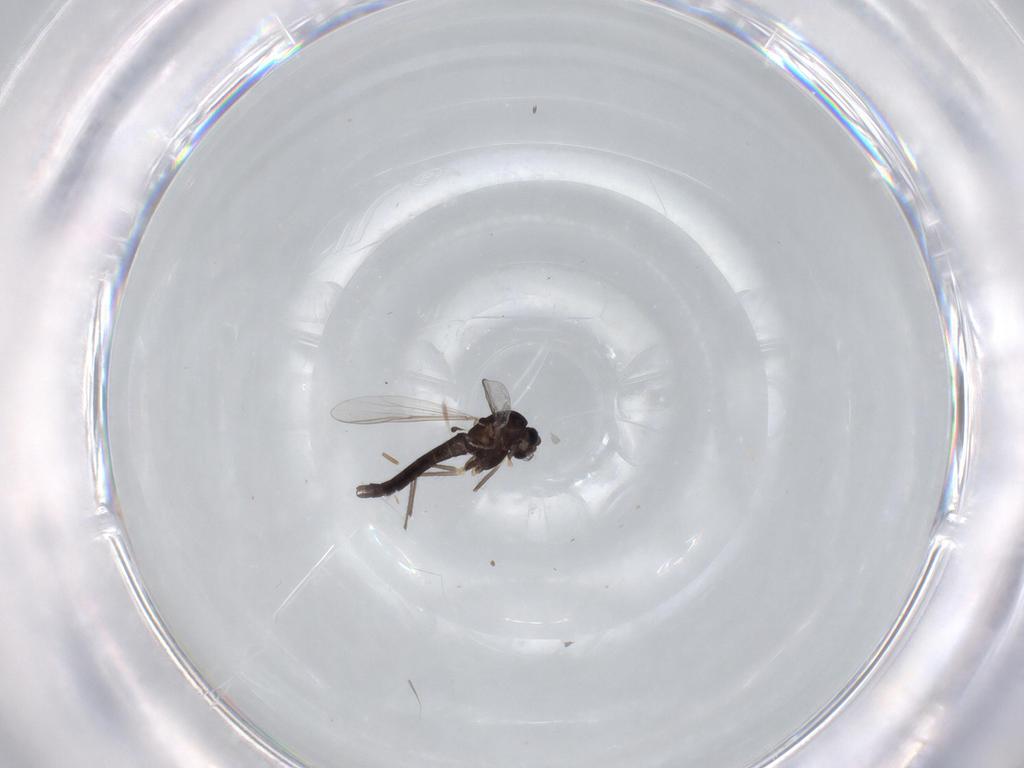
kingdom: Animalia
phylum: Arthropoda
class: Insecta
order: Diptera
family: Chironomidae
